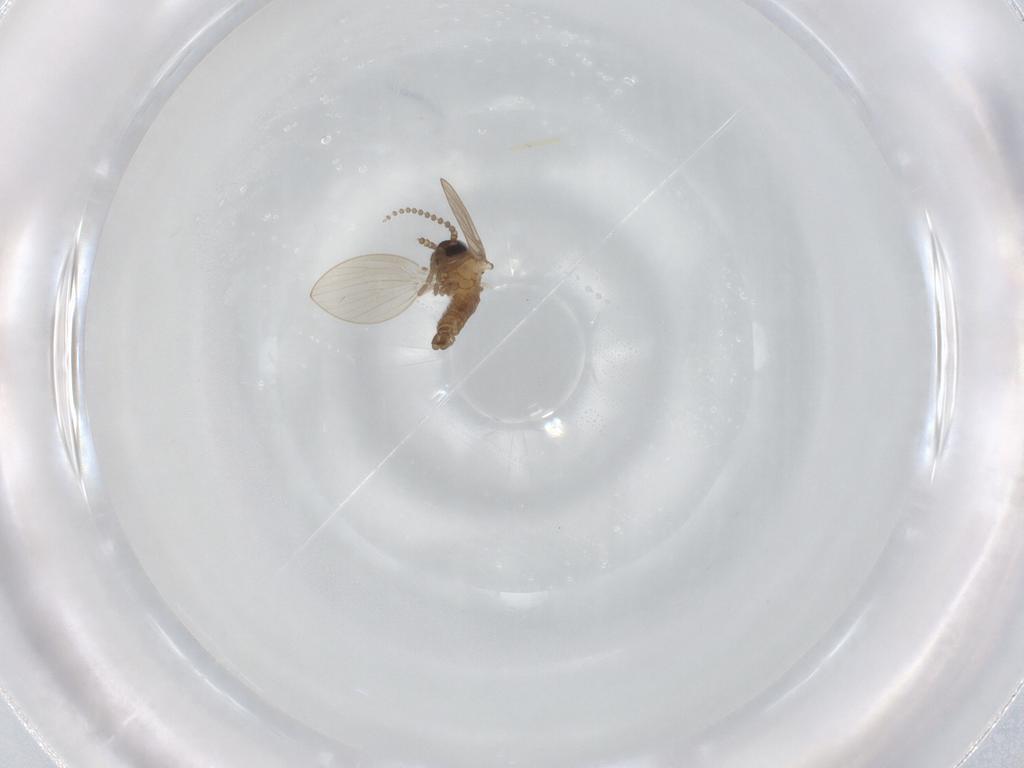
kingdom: Animalia
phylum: Arthropoda
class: Insecta
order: Diptera
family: Psychodidae
